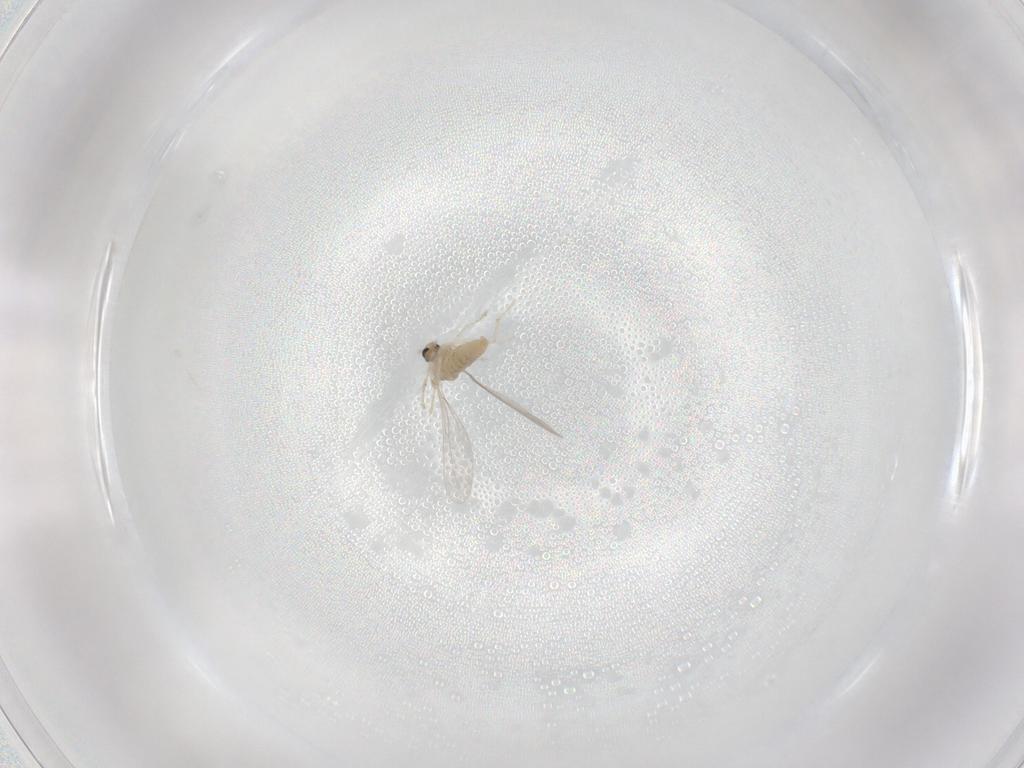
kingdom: Animalia
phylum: Arthropoda
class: Insecta
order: Diptera
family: Cecidomyiidae
